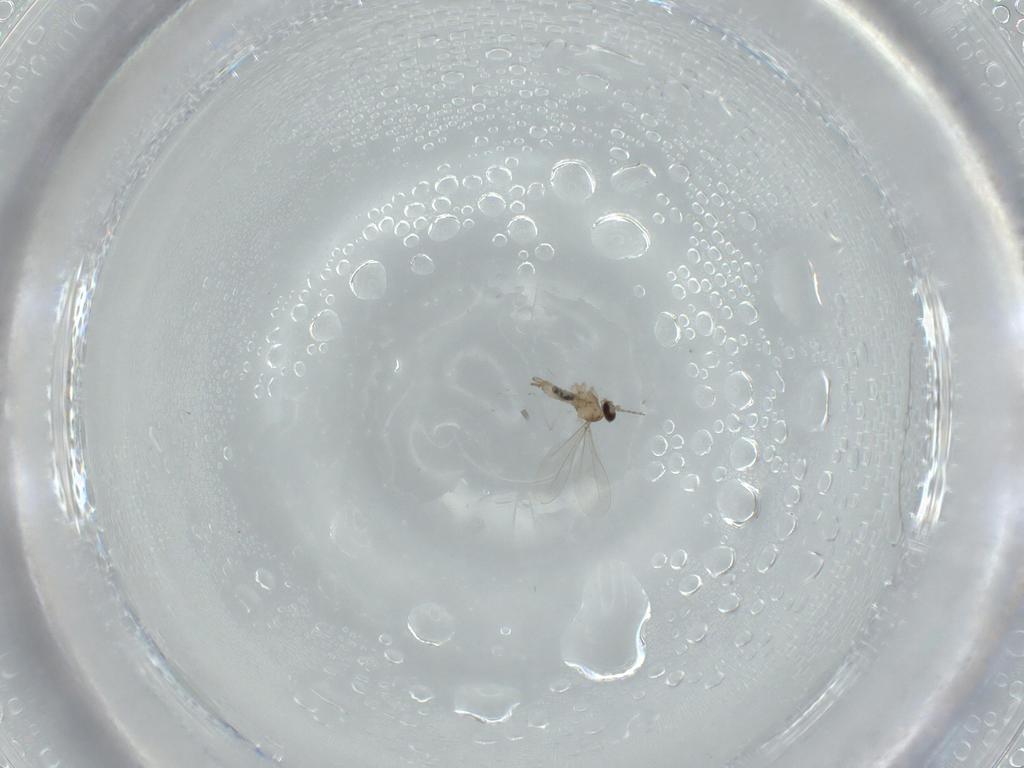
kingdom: Animalia
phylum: Arthropoda
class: Insecta
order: Diptera
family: Cecidomyiidae
